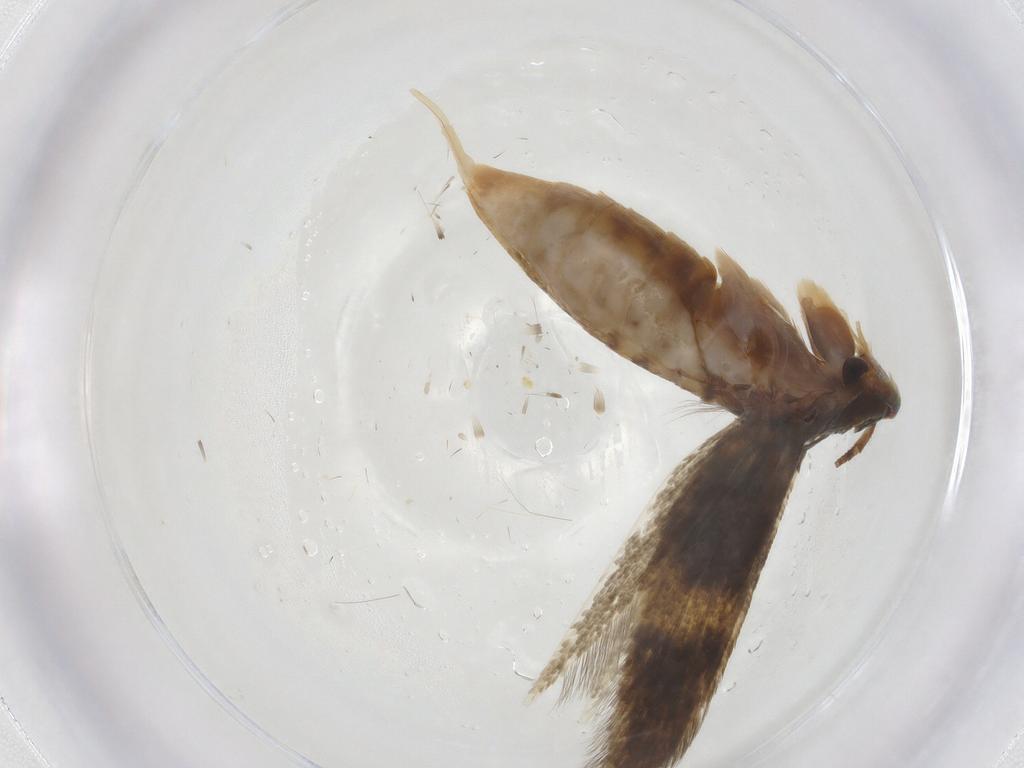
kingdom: Animalia
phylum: Arthropoda
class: Insecta
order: Lepidoptera
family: Tineidae
